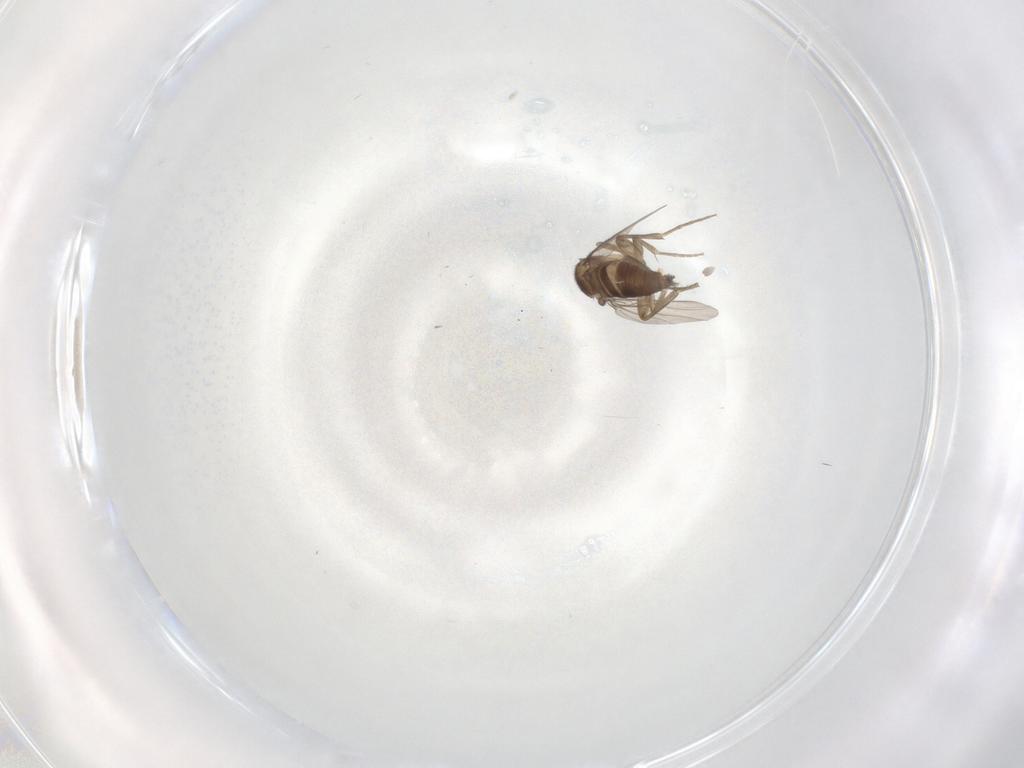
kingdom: Animalia
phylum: Arthropoda
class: Insecta
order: Diptera
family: Phoridae
